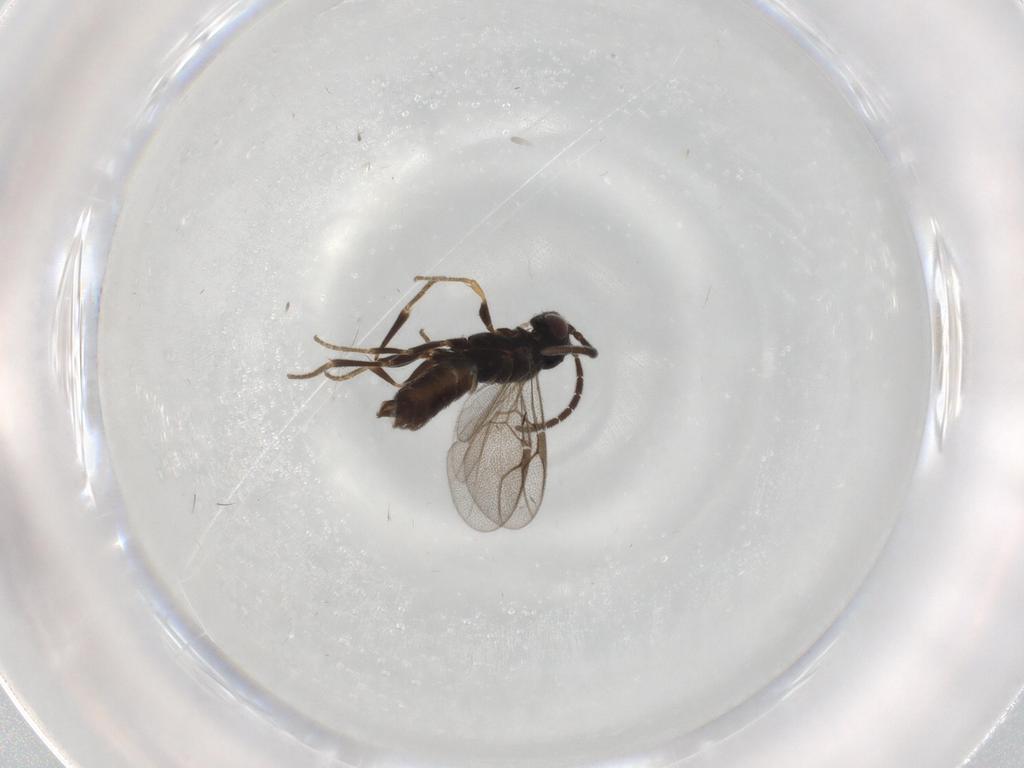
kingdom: Animalia
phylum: Arthropoda
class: Insecta
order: Hymenoptera
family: Dryinidae
